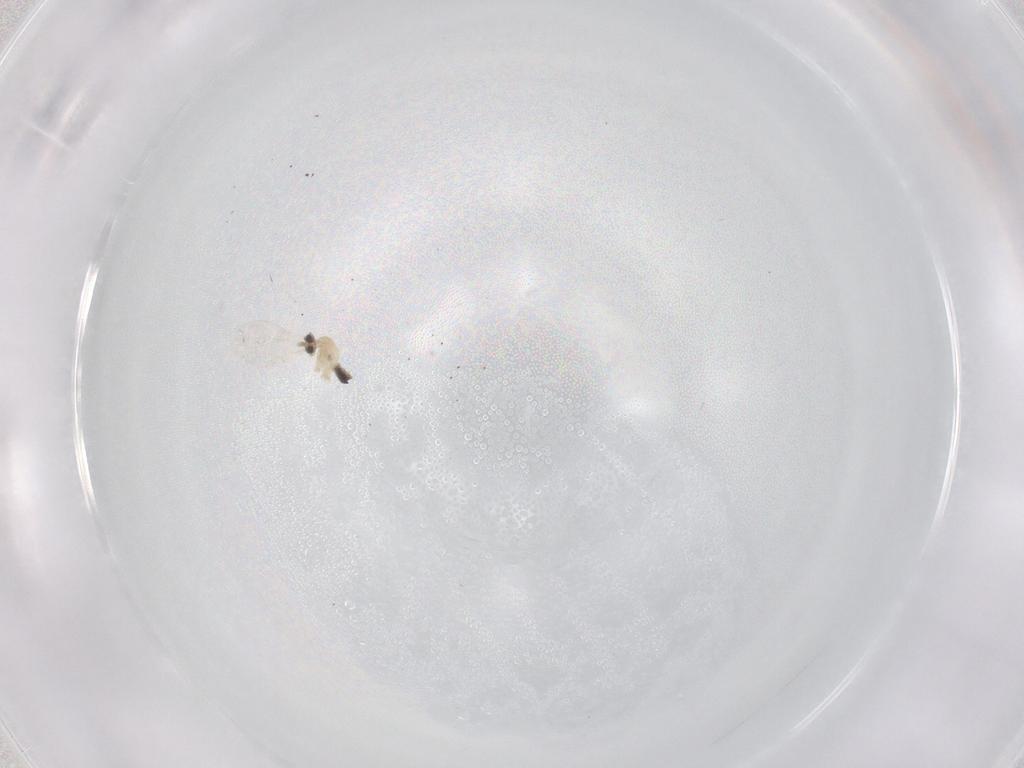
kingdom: Animalia
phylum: Arthropoda
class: Insecta
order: Diptera
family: Cecidomyiidae
